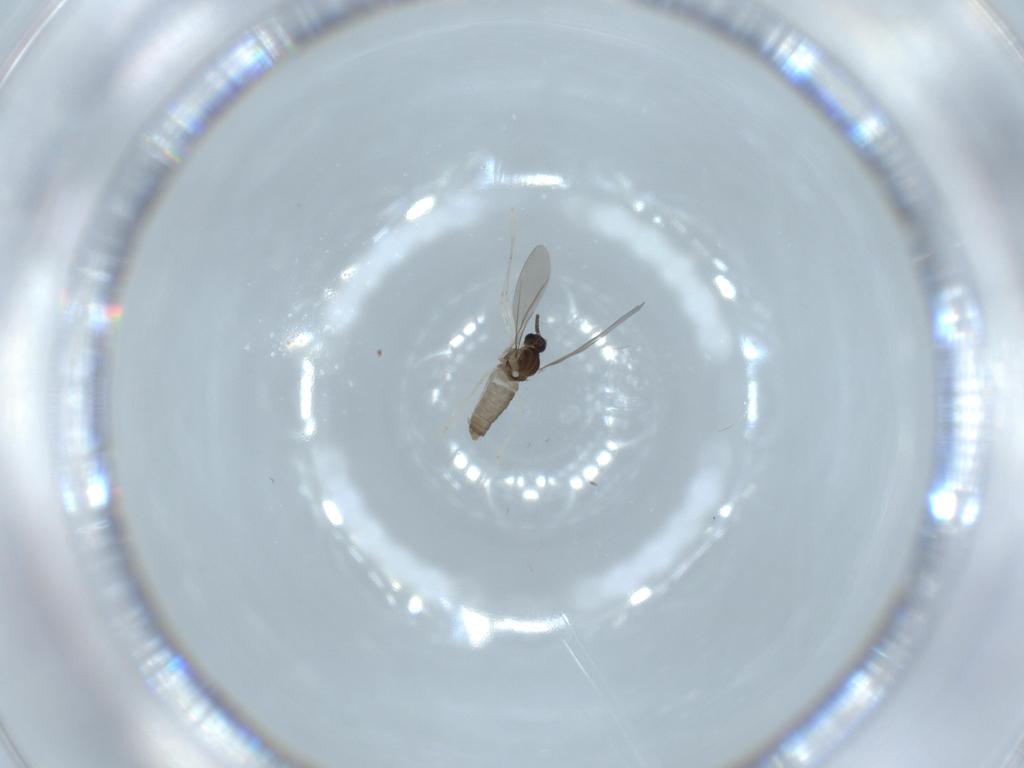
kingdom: Animalia
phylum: Arthropoda
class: Insecta
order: Diptera
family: Cecidomyiidae
